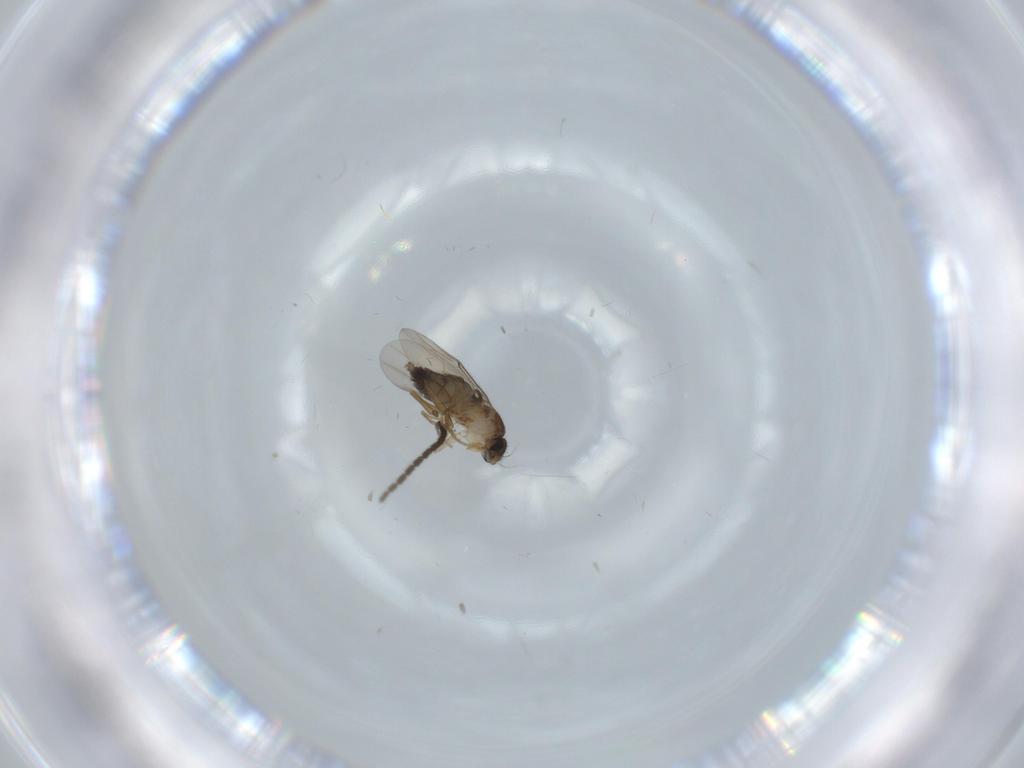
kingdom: Animalia
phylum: Arthropoda
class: Insecta
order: Diptera
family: Phoridae
